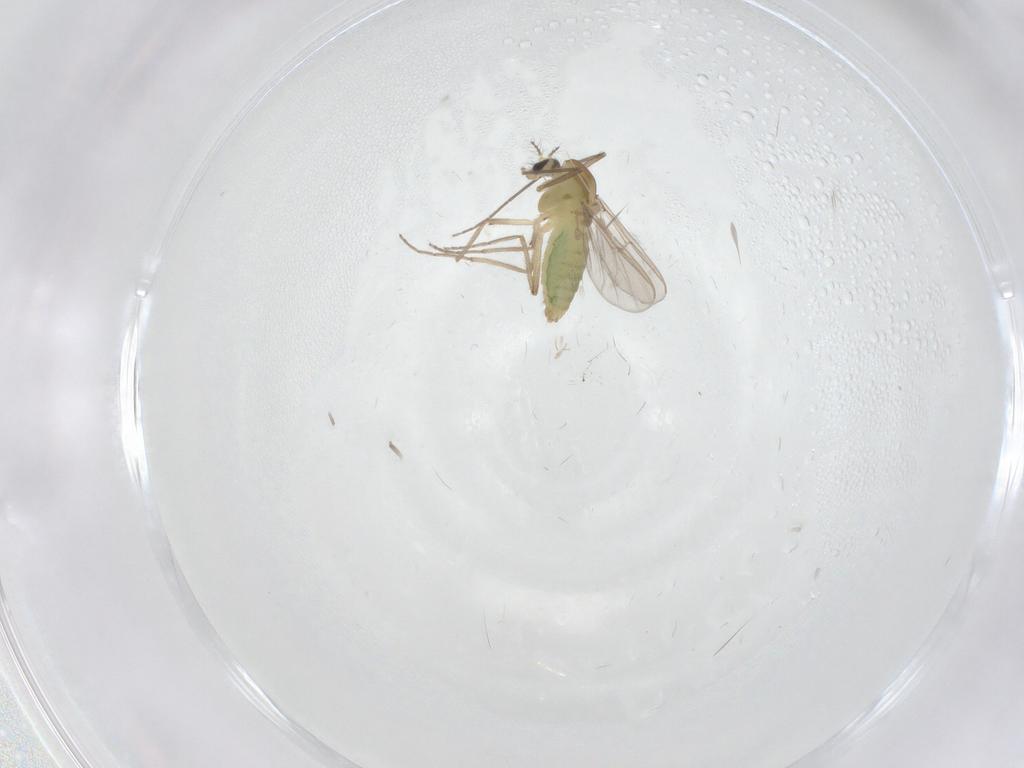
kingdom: Animalia
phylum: Arthropoda
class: Insecta
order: Diptera
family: Chironomidae
